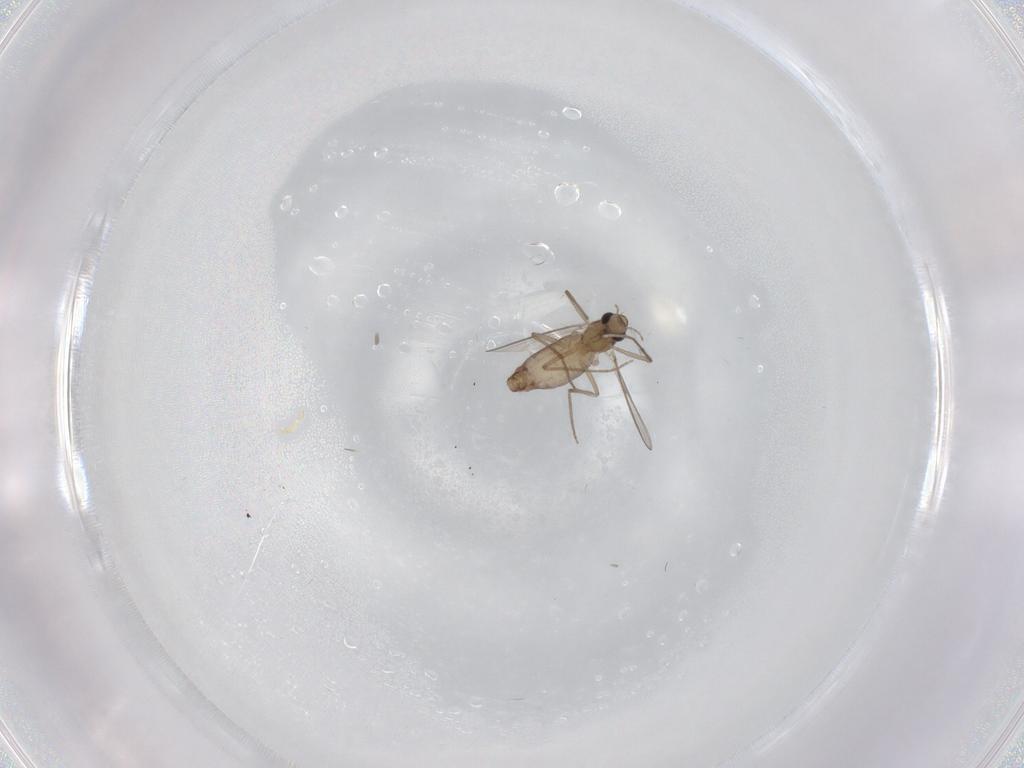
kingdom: Animalia
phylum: Arthropoda
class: Insecta
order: Diptera
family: Chironomidae
